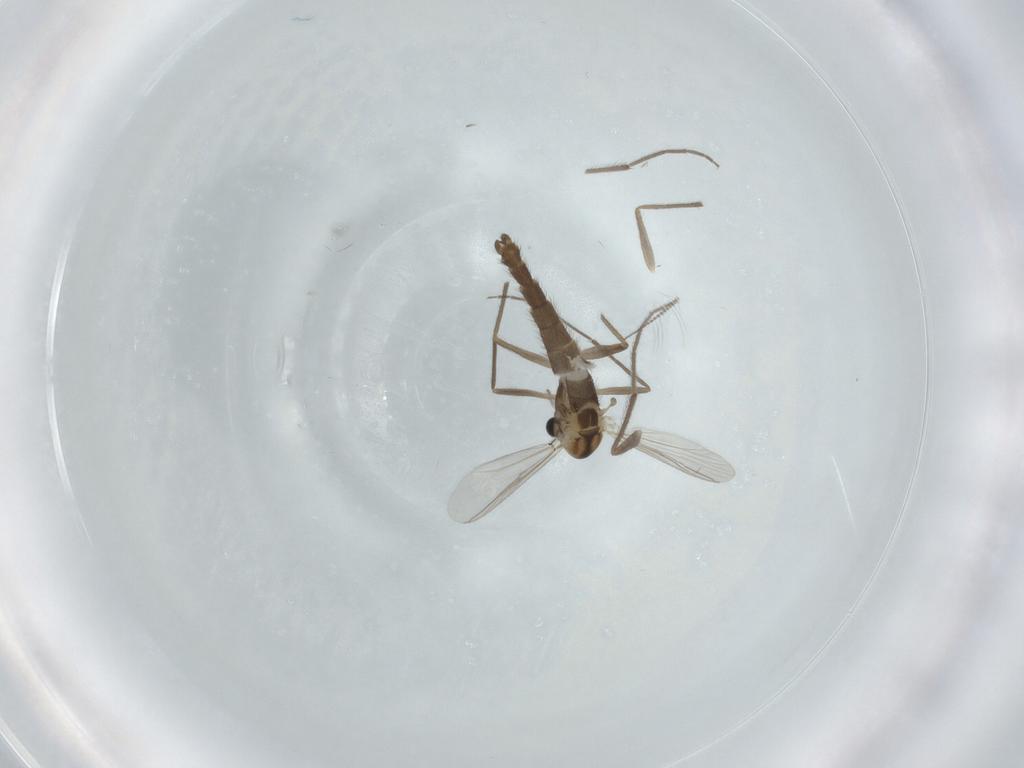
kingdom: Animalia
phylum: Arthropoda
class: Insecta
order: Diptera
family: Chironomidae
